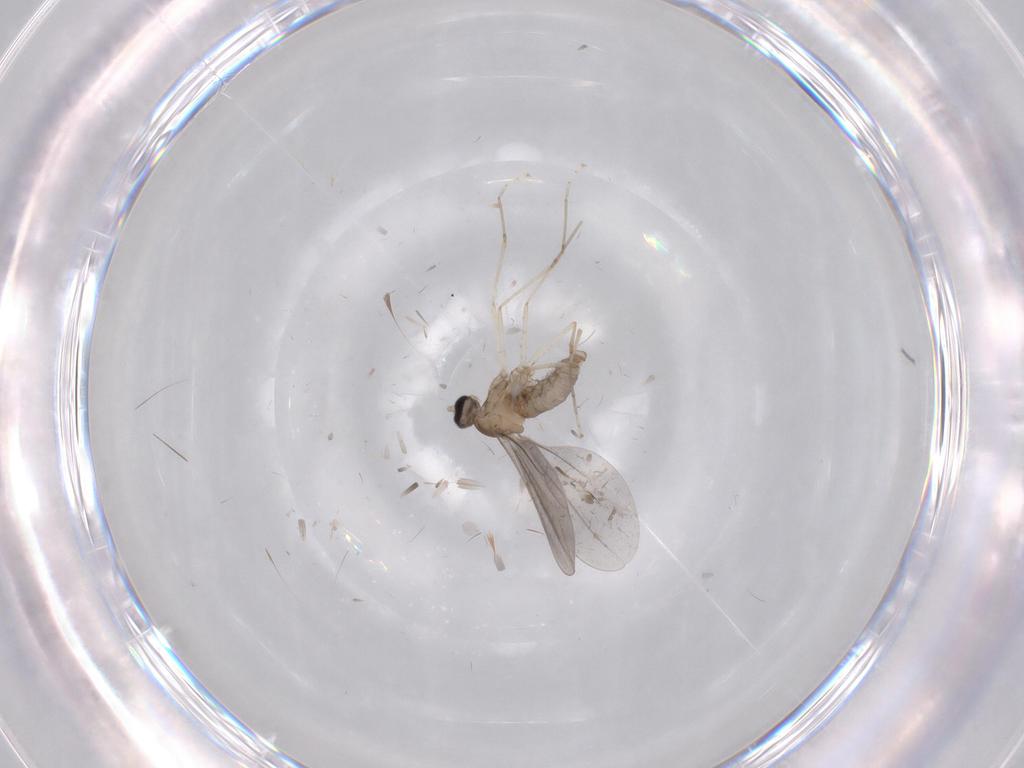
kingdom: Animalia
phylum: Arthropoda
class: Insecta
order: Diptera
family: Cecidomyiidae
